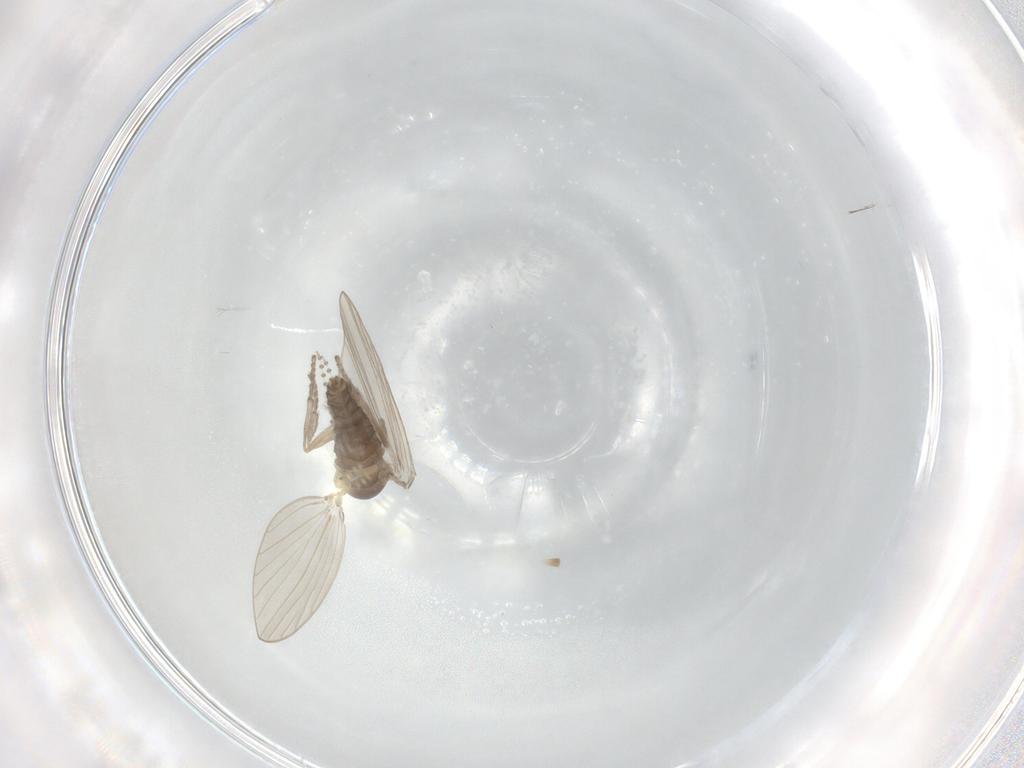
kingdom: Animalia
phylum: Arthropoda
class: Insecta
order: Diptera
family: Psychodidae
